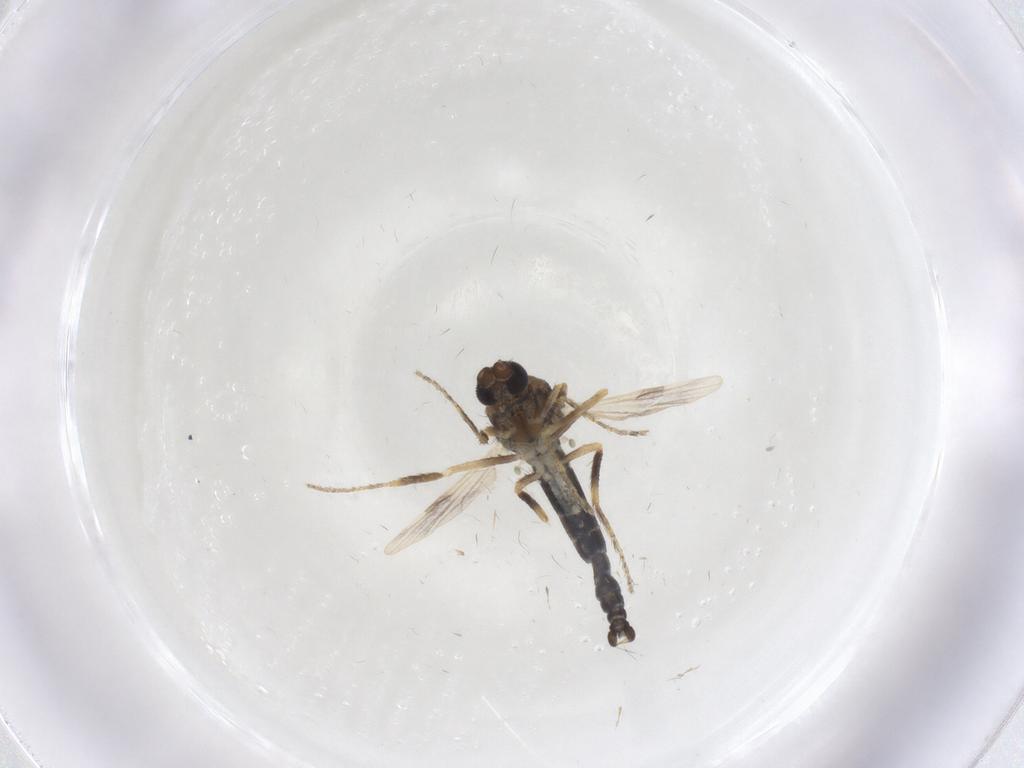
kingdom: Animalia
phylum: Arthropoda
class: Insecta
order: Diptera
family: Ceratopogonidae
